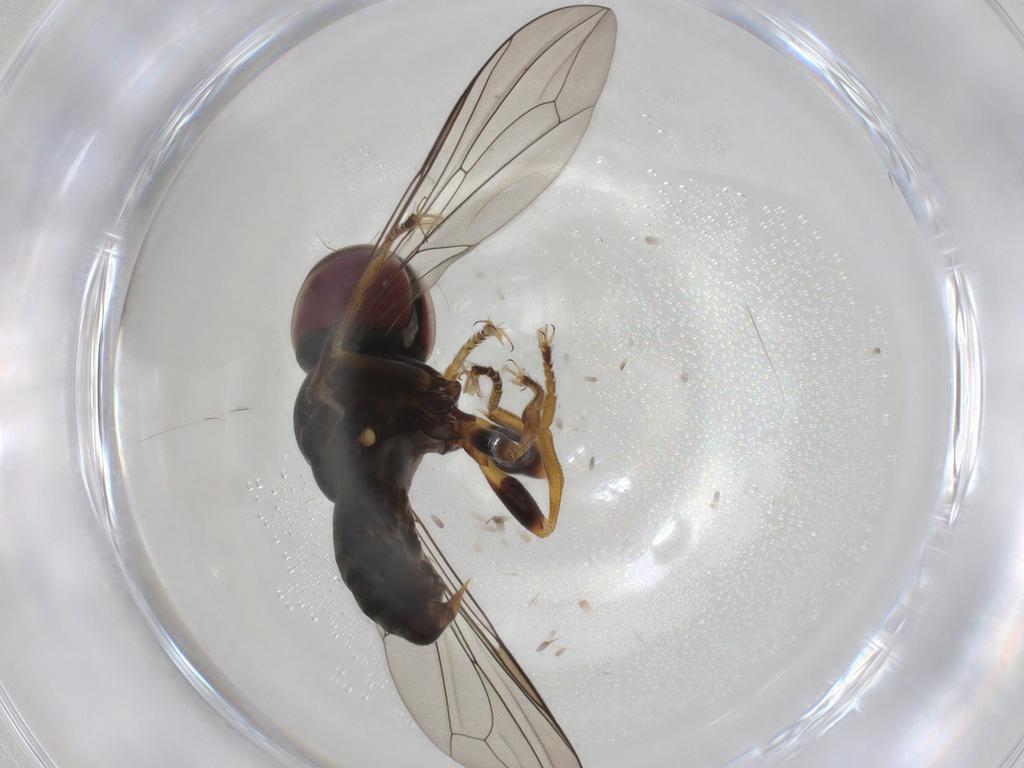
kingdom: Animalia
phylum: Arthropoda
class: Insecta
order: Diptera
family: Pipunculidae
